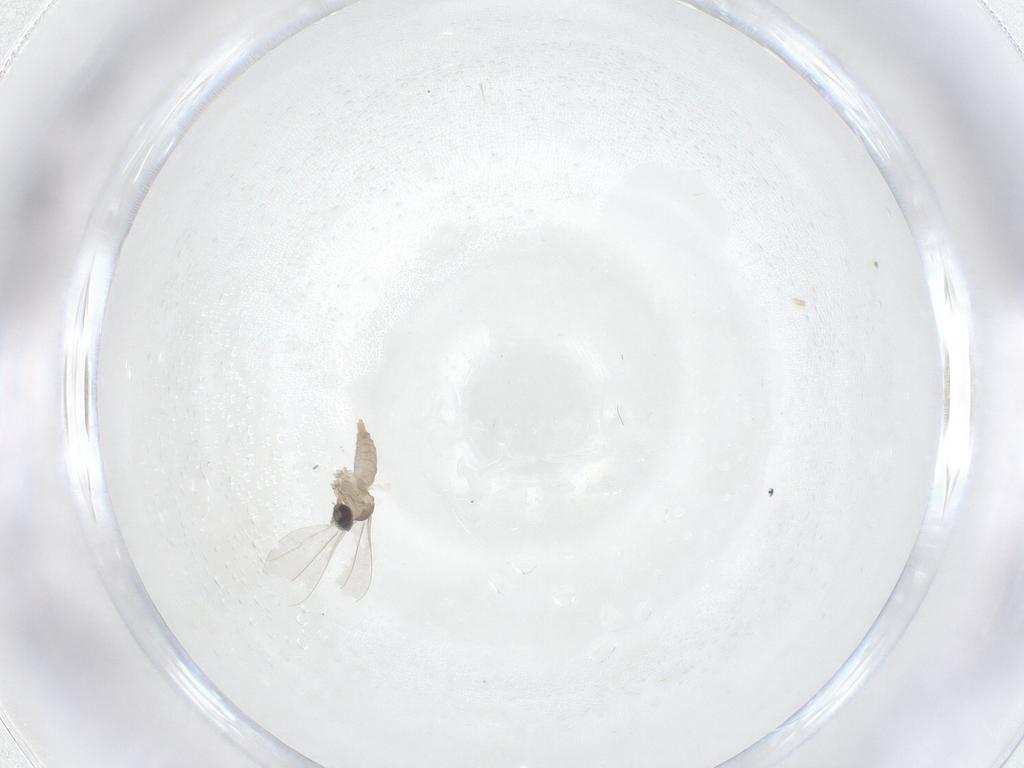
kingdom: Animalia
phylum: Arthropoda
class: Insecta
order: Diptera
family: Cecidomyiidae
